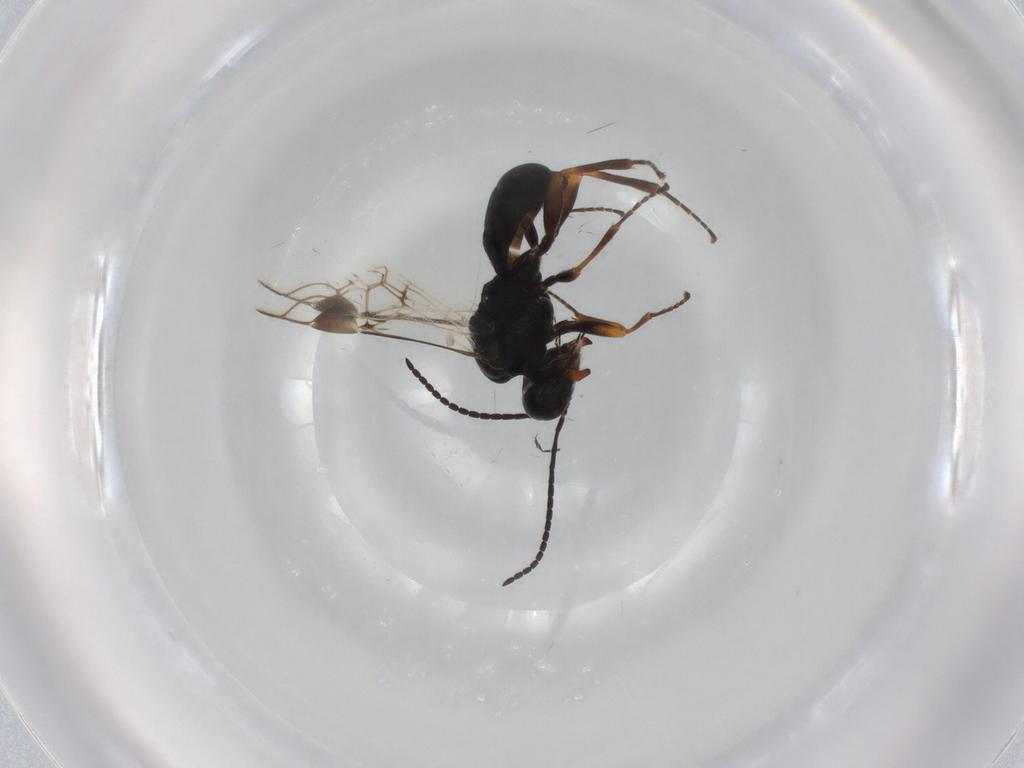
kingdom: Animalia
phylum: Arthropoda
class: Insecta
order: Hymenoptera
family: Braconidae
